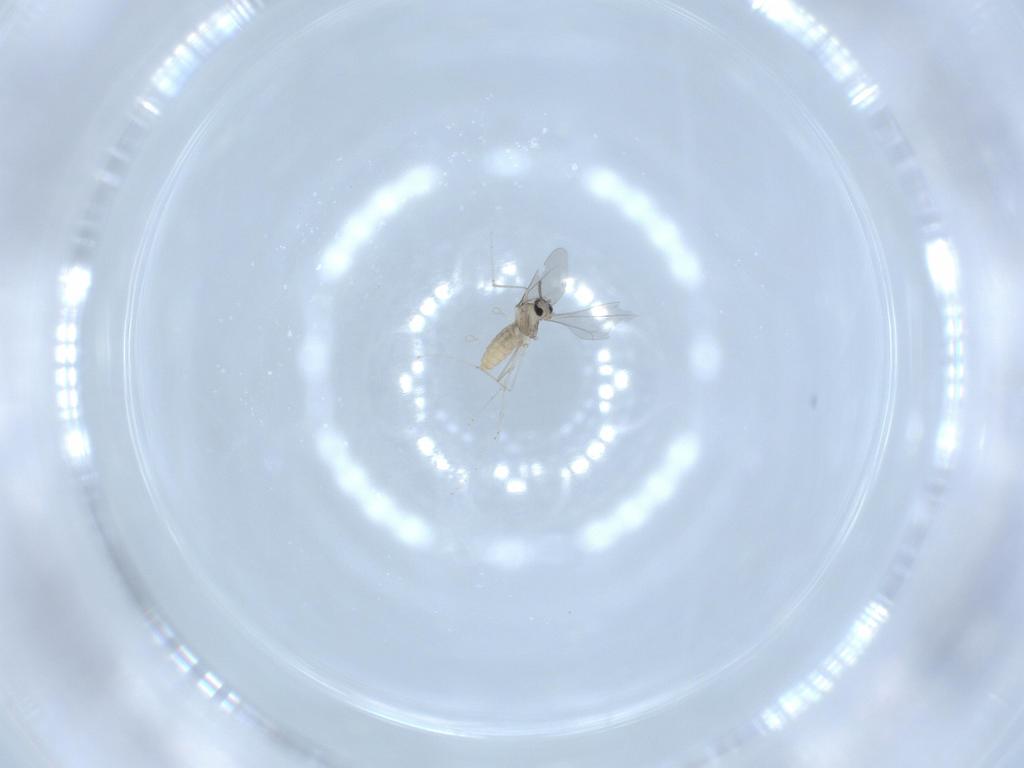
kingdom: Animalia
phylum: Arthropoda
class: Insecta
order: Diptera
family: Cecidomyiidae
